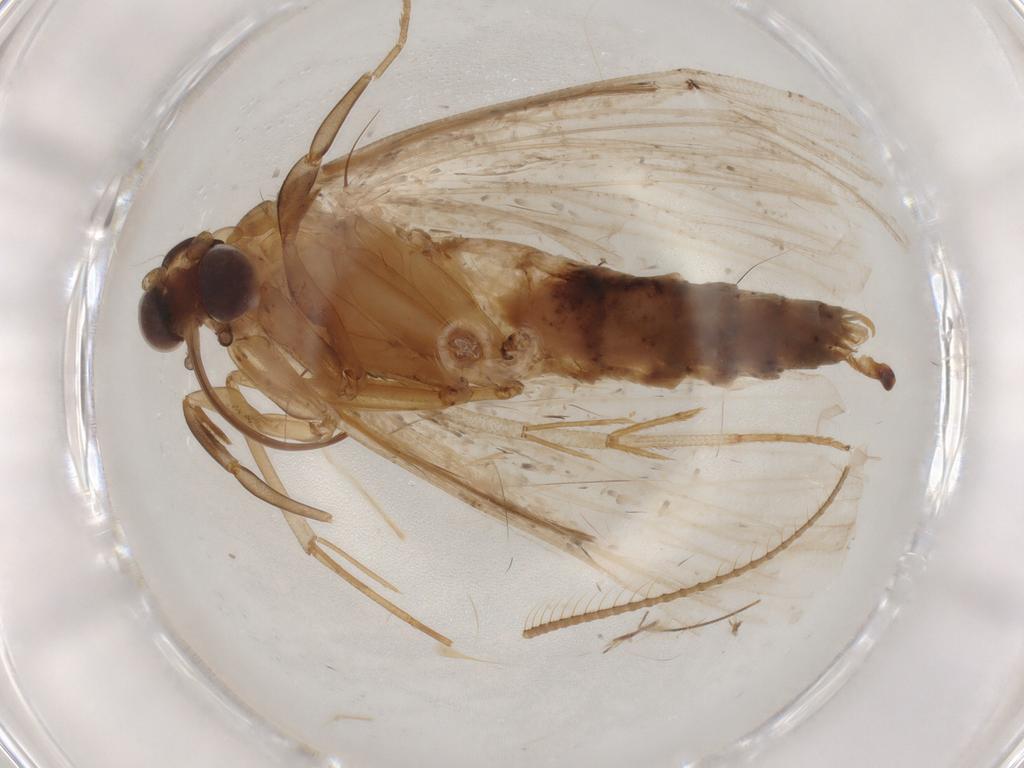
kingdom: Animalia
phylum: Arthropoda
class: Insecta
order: Lepidoptera
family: Erebidae
